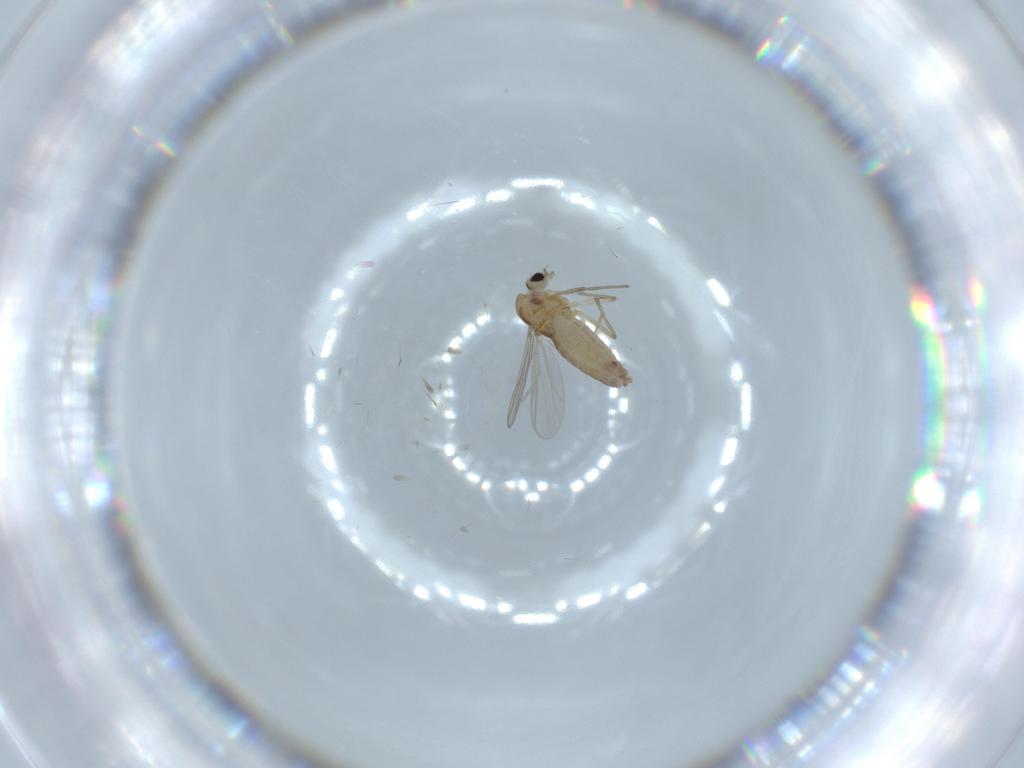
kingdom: Animalia
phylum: Arthropoda
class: Insecta
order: Diptera
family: Chironomidae
